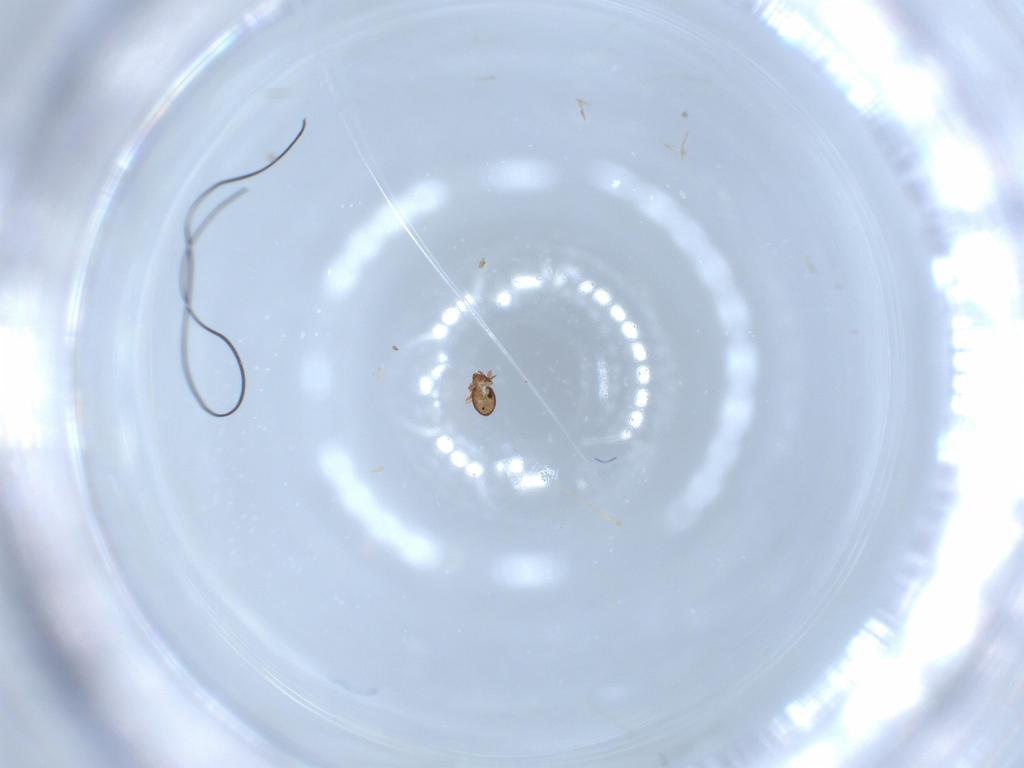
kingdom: Animalia
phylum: Arthropoda
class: Arachnida
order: Sarcoptiformes
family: Dendroeremaeidae
